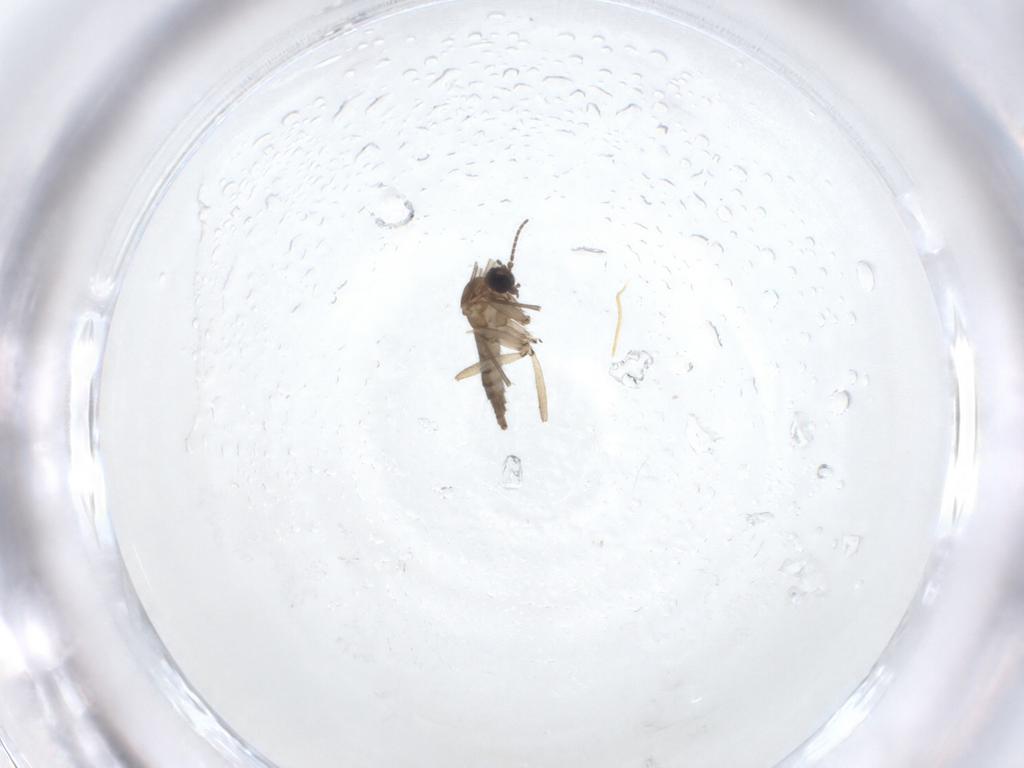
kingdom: Animalia
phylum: Arthropoda
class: Insecta
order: Diptera
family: Sciaridae
